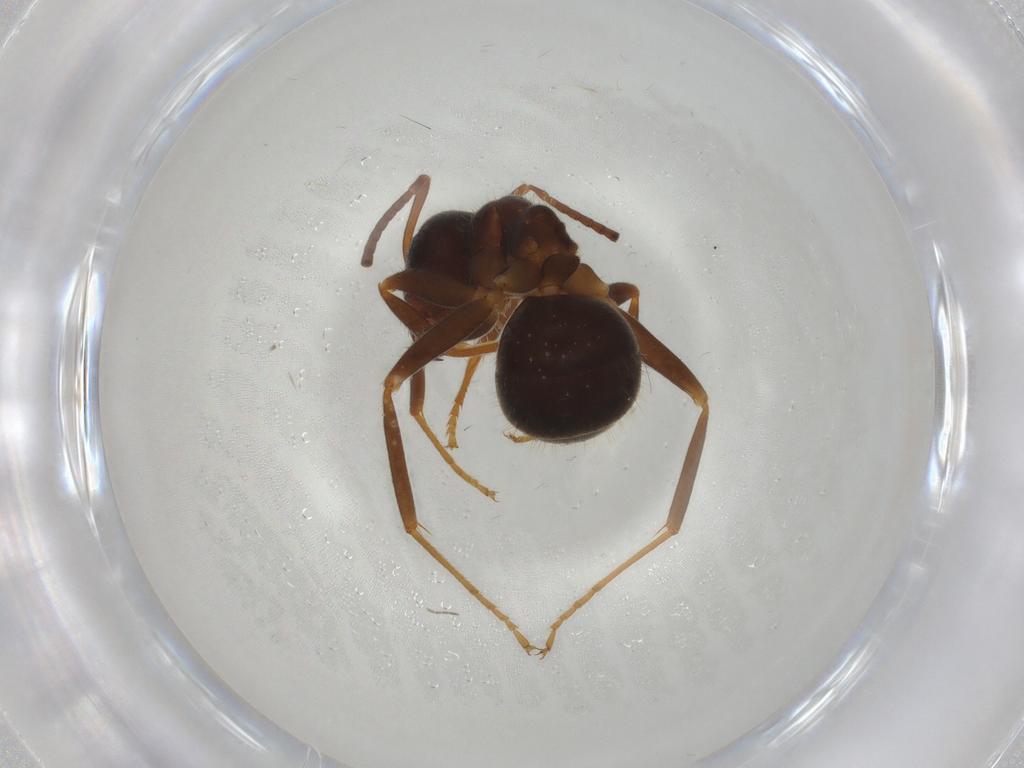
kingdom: Animalia
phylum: Arthropoda
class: Insecta
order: Hymenoptera
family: Formicidae
